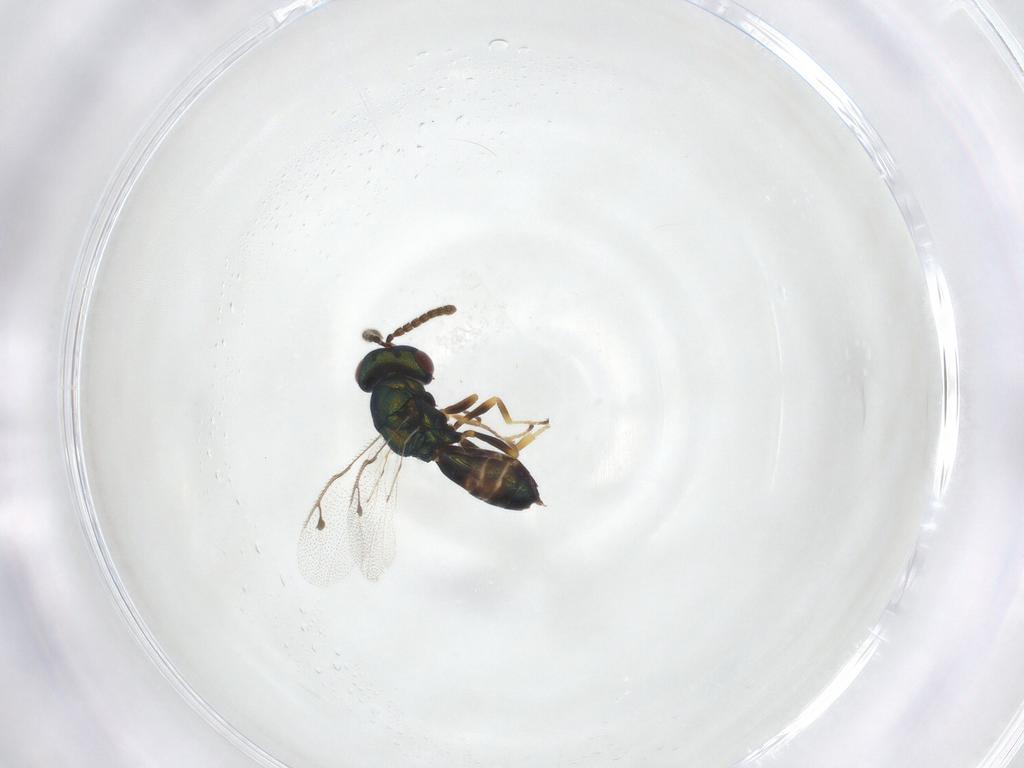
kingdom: Animalia
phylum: Arthropoda
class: Insecta
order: Hymenoptera
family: Pteromalidae
